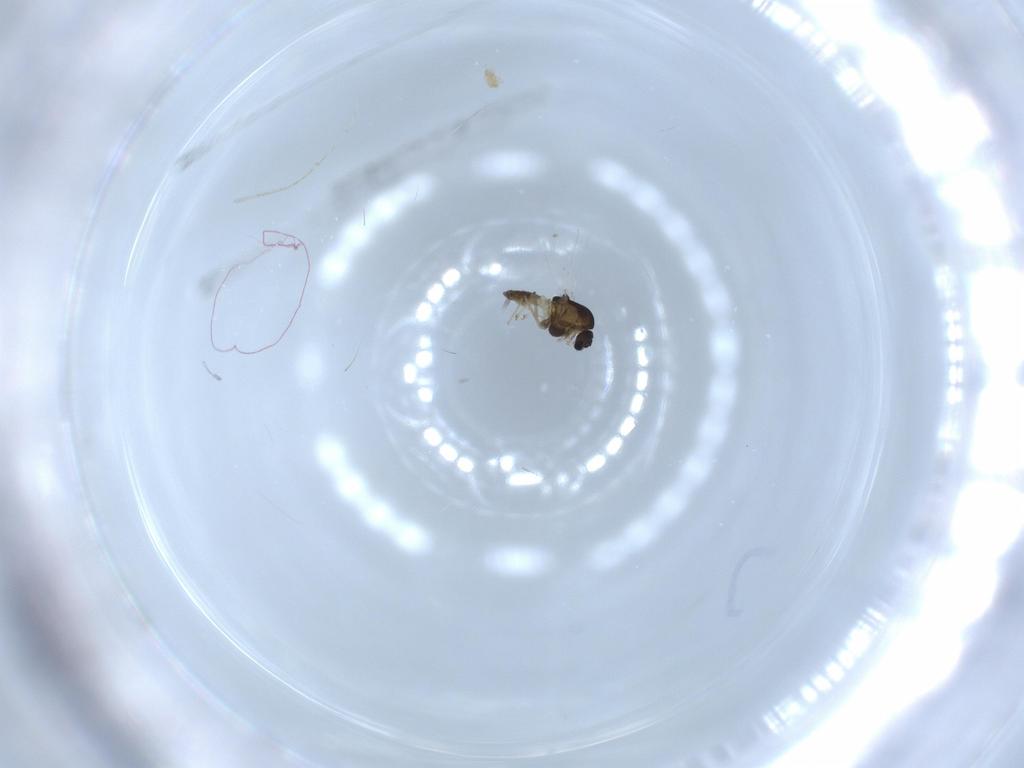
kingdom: Animalia
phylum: Arthropoda
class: Insecta
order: Diptera
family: Chironomidae
